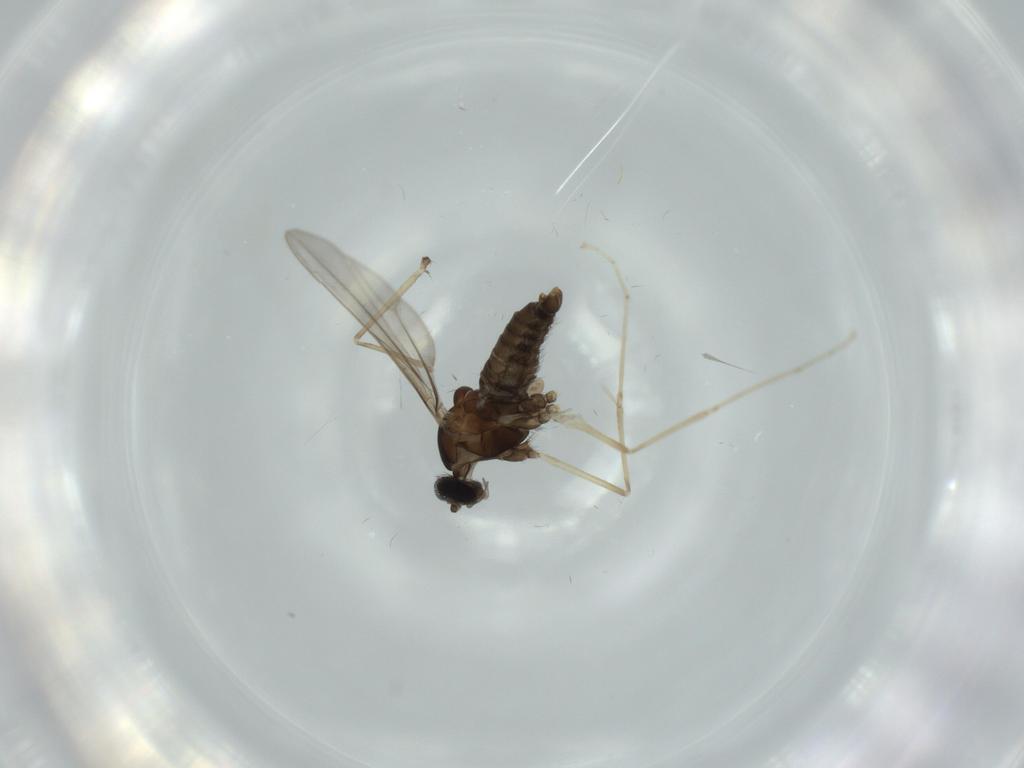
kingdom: Animalia
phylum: Arthropoda
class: Insecta
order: Diptera
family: Cecidomyiidae
